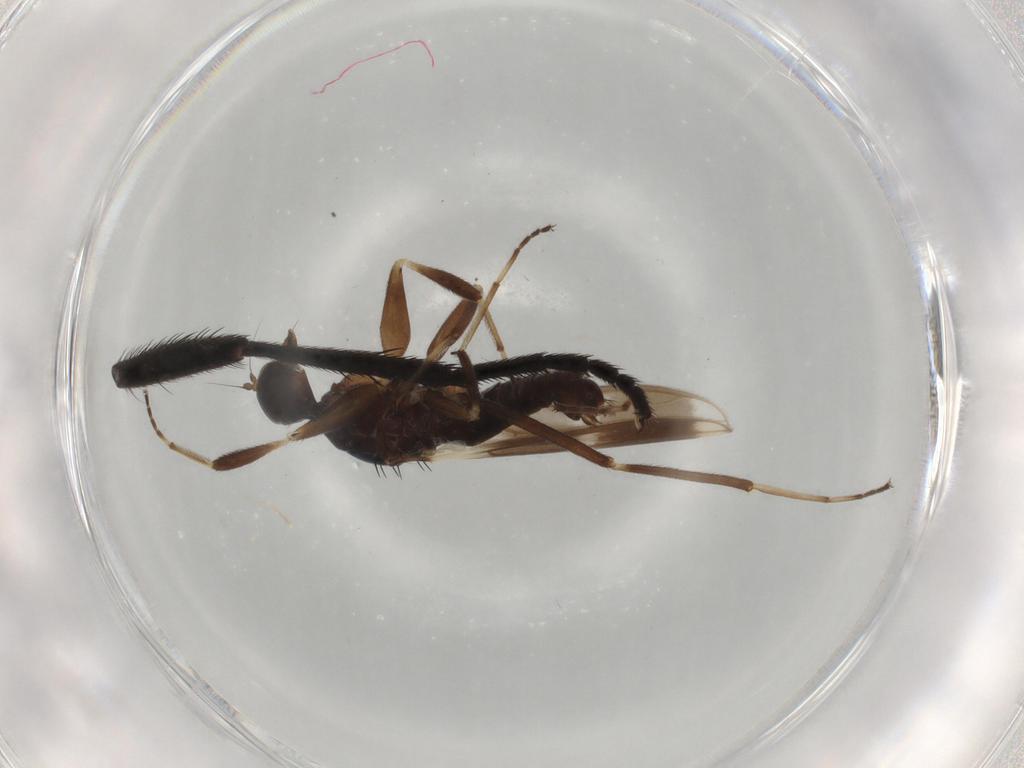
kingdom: Animalia
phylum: Arthropoda
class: Insecta
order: Diptera
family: Hybotidae
